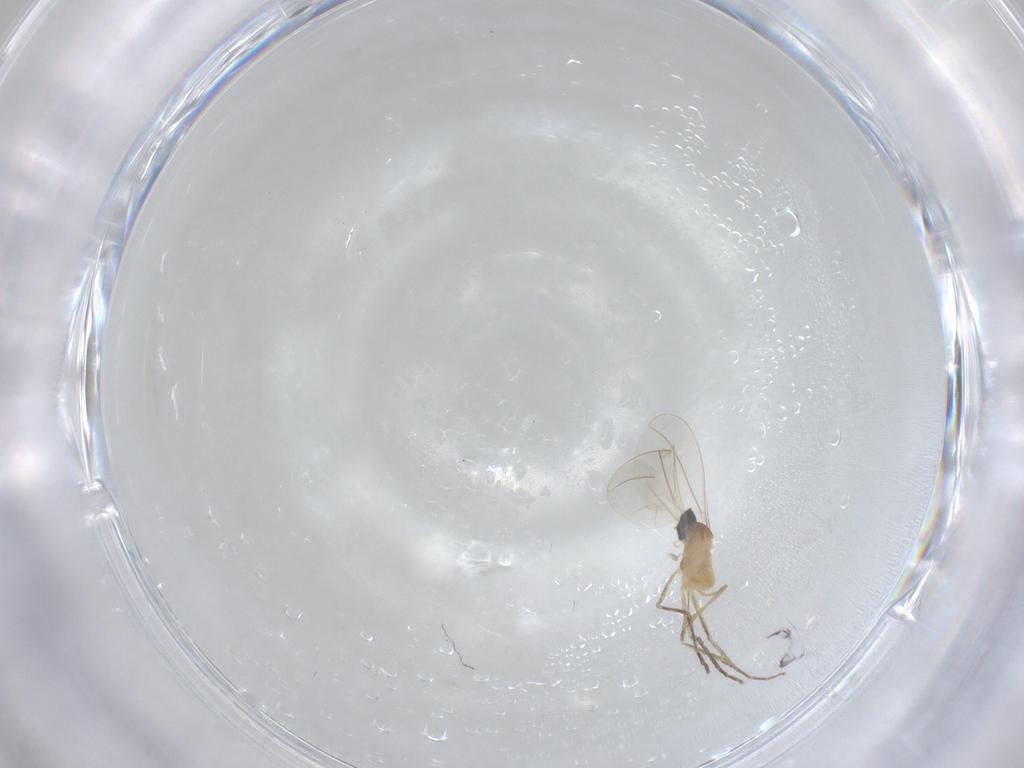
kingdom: Animalia
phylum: Arthropoda
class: Insecta
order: Diptera
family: Cecidomyiidae
